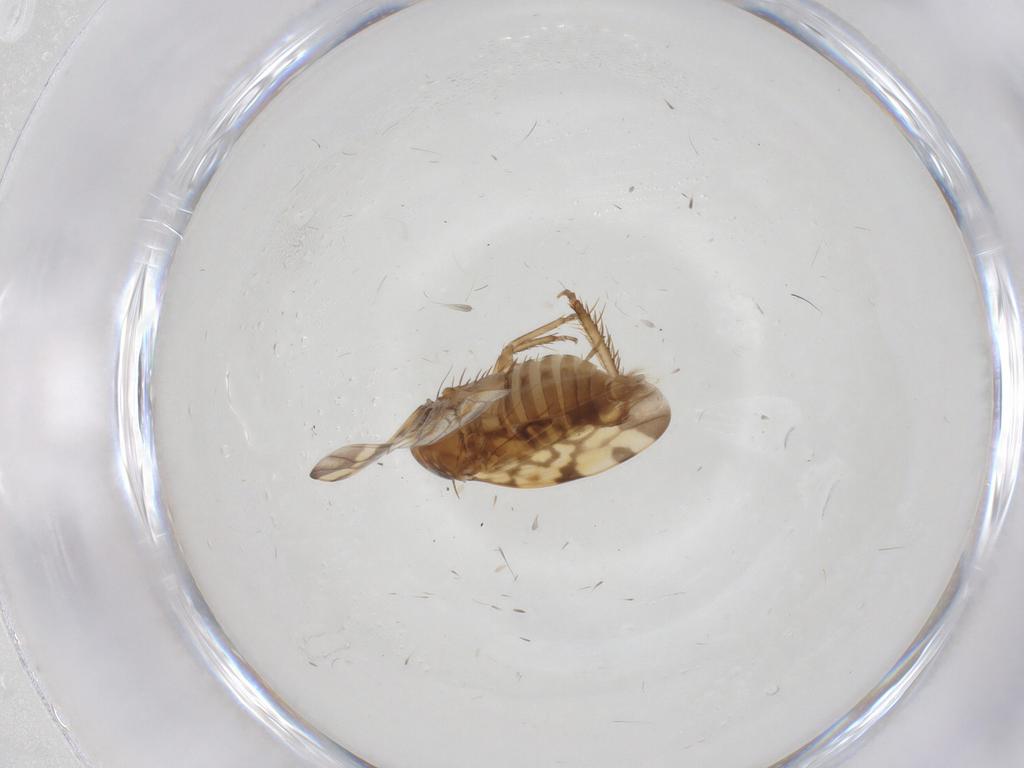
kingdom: Animalia
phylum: Arthropoda
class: Insecta
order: Hemiptera
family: Cicadellidae
